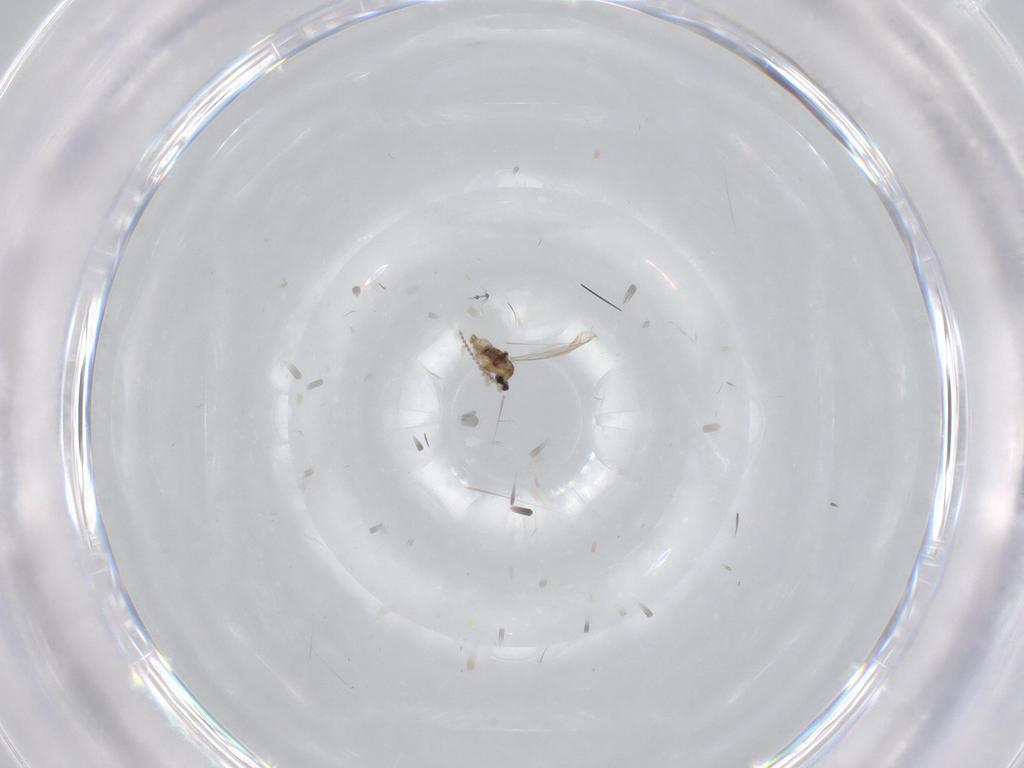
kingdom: Animalia
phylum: Arthropoda
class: Insecta
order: Diptera
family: Cecidomyiidae
